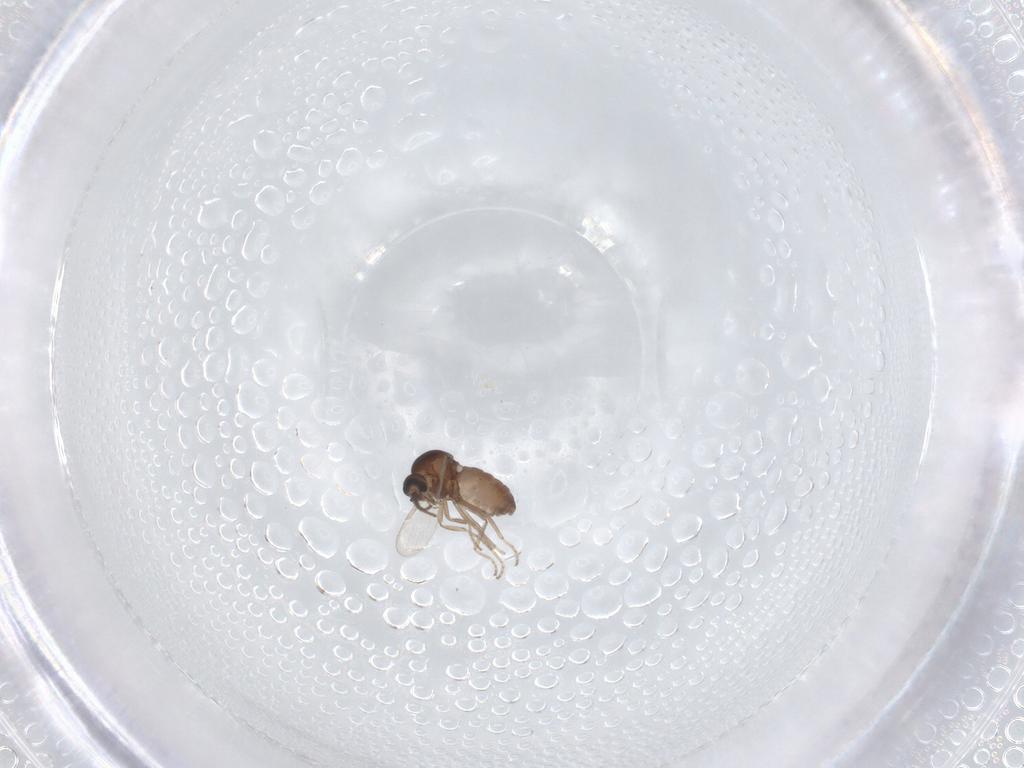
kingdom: Animalia
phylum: Arthropoda
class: Insecta
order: Diptera
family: Ceratopogonidae
